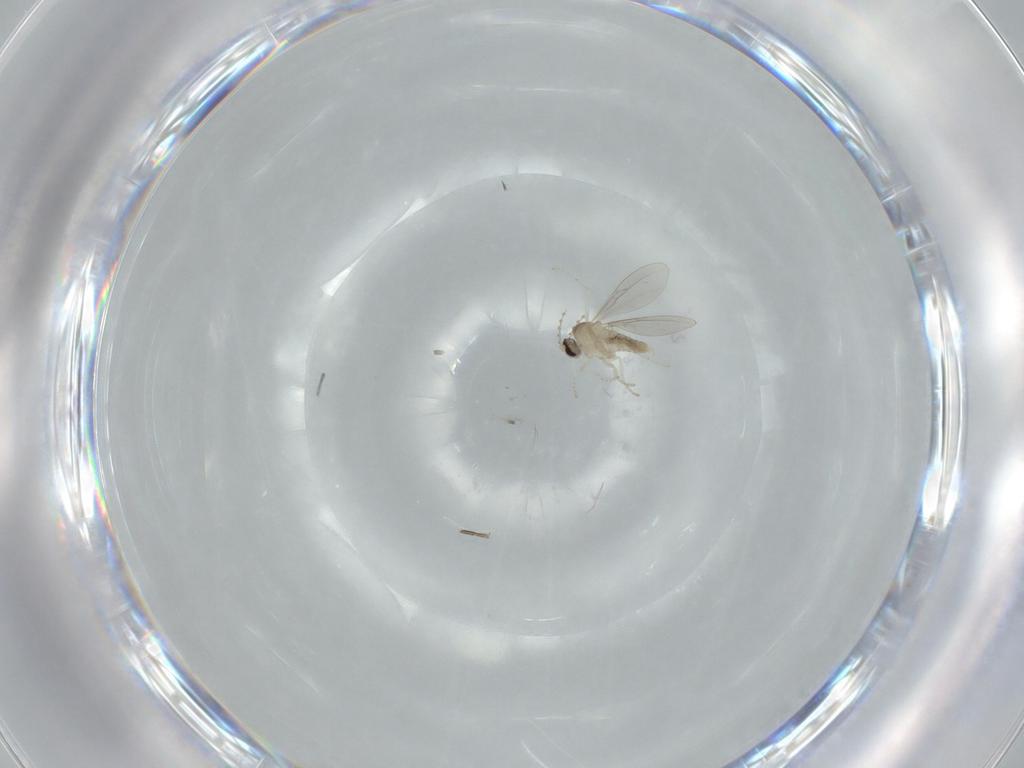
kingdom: Animalia
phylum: Arthropoda
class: Insecta
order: Diptera
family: Cecidomyiidae
